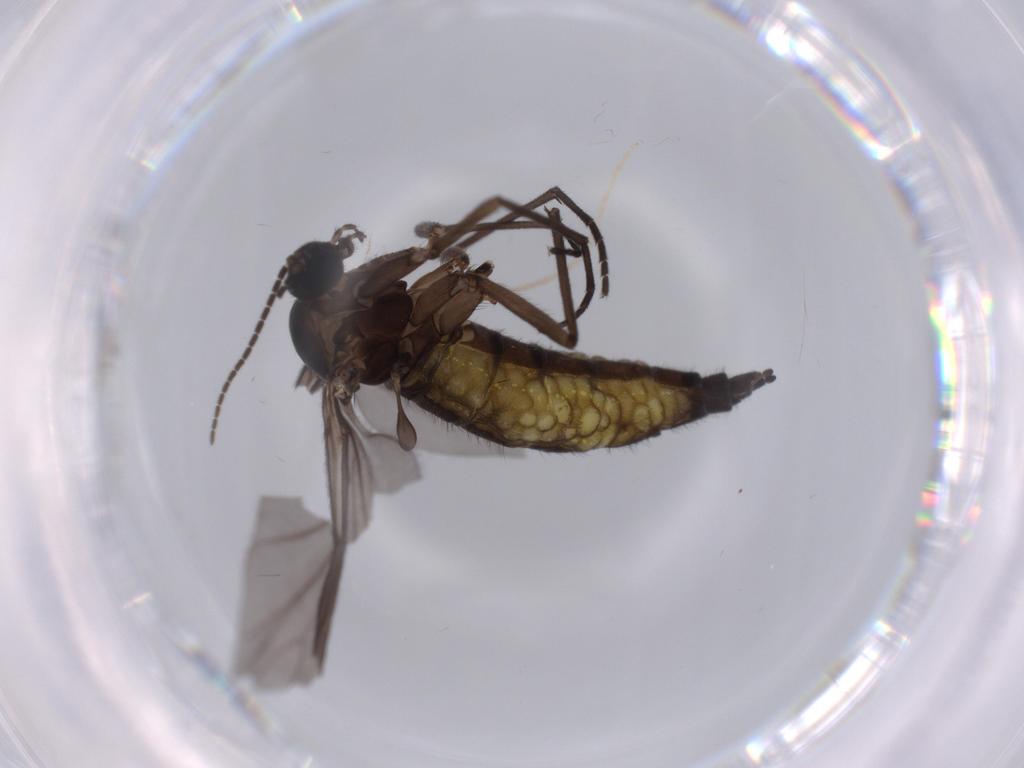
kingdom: Animalia
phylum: Arthropoda
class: Insecta
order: Diptera
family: Sciaridae
